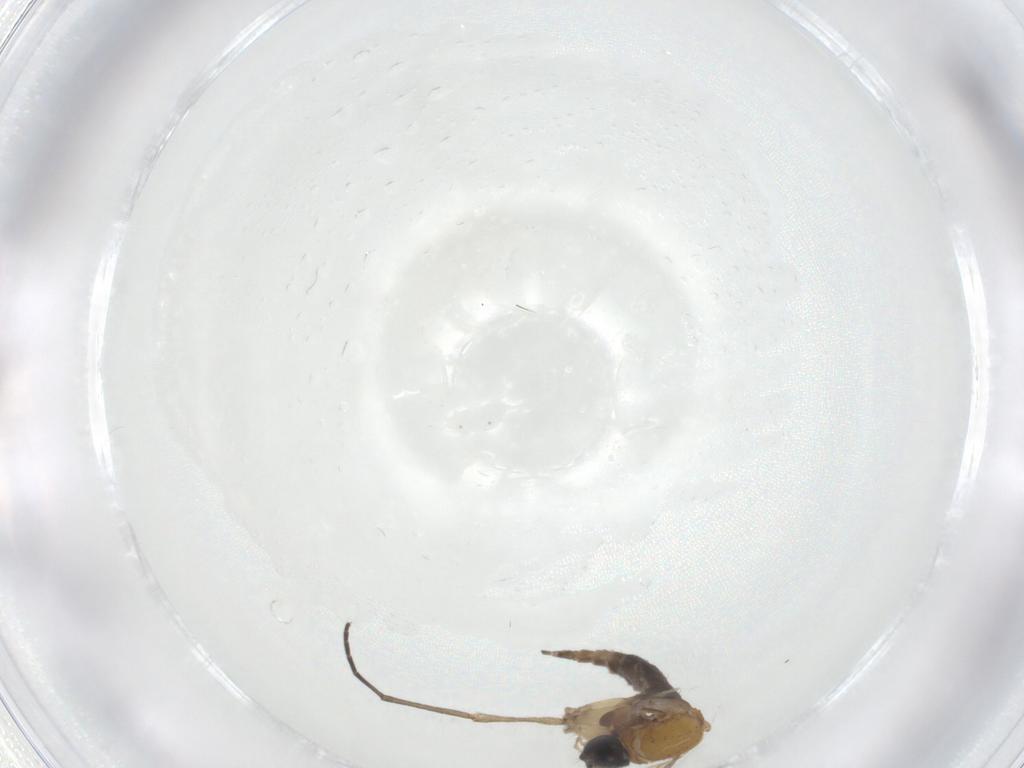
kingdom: Animalia
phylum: Arthropoda
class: Insecta
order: Diptera
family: Sciaridae
